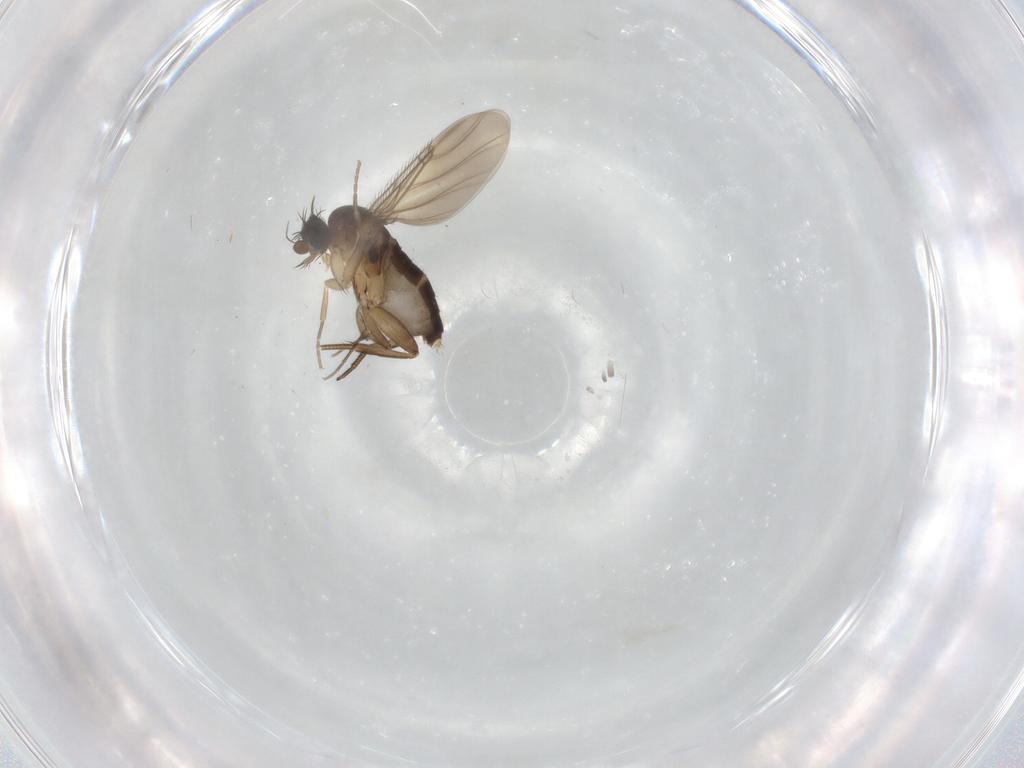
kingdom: Animalia
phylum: Arthropoda
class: Insecta
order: Diptera
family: Phoridae
